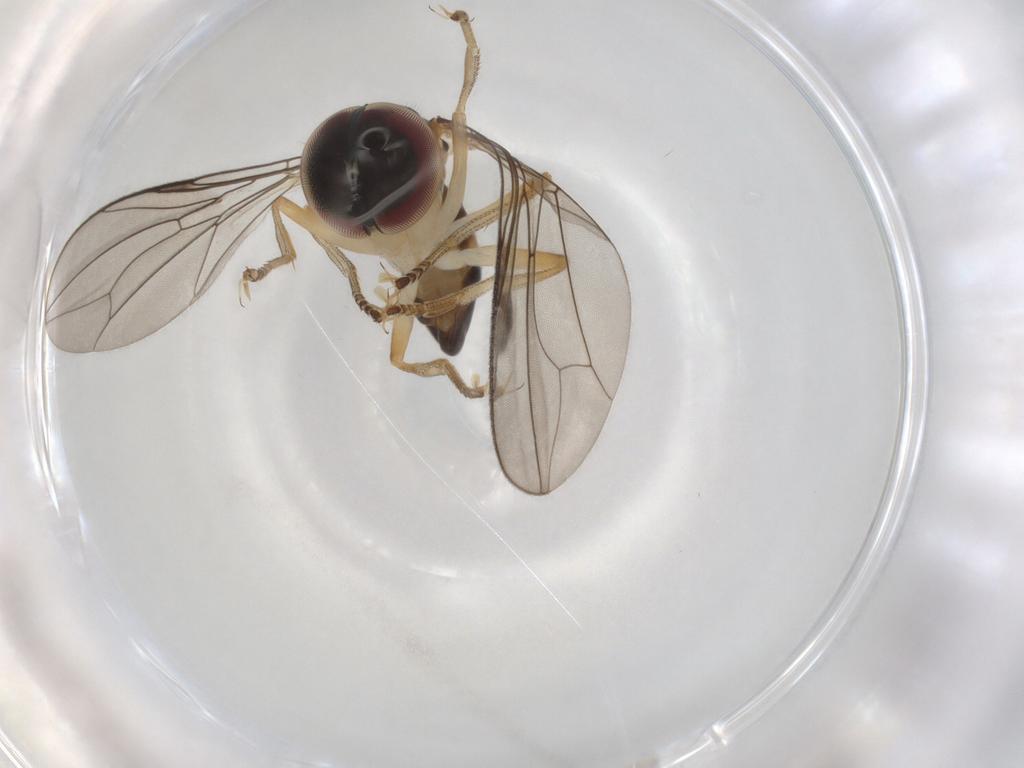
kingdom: Animalia
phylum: Arthropoda
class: Insecta
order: Diptera
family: Hybotidae
